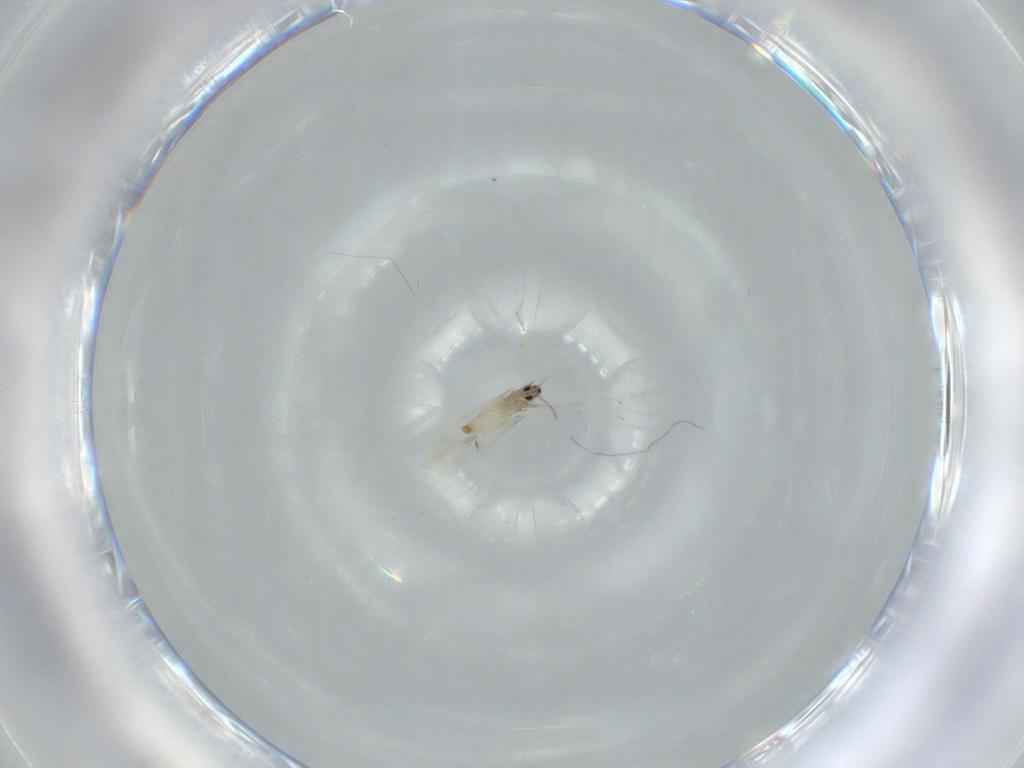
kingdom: Animalia
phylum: Arthropoda
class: Insecta
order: Diptera
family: Cecidomyiidae
